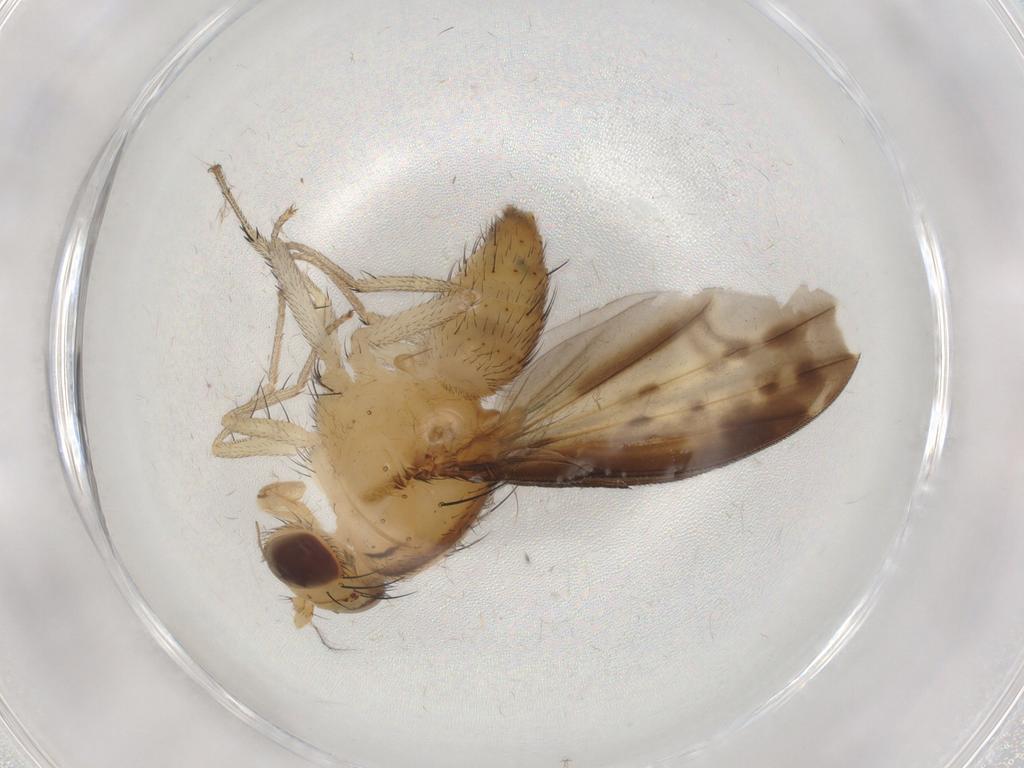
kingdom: Animalia
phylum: Arthropoda
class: Insecta
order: Diptera
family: Chaoboridae
